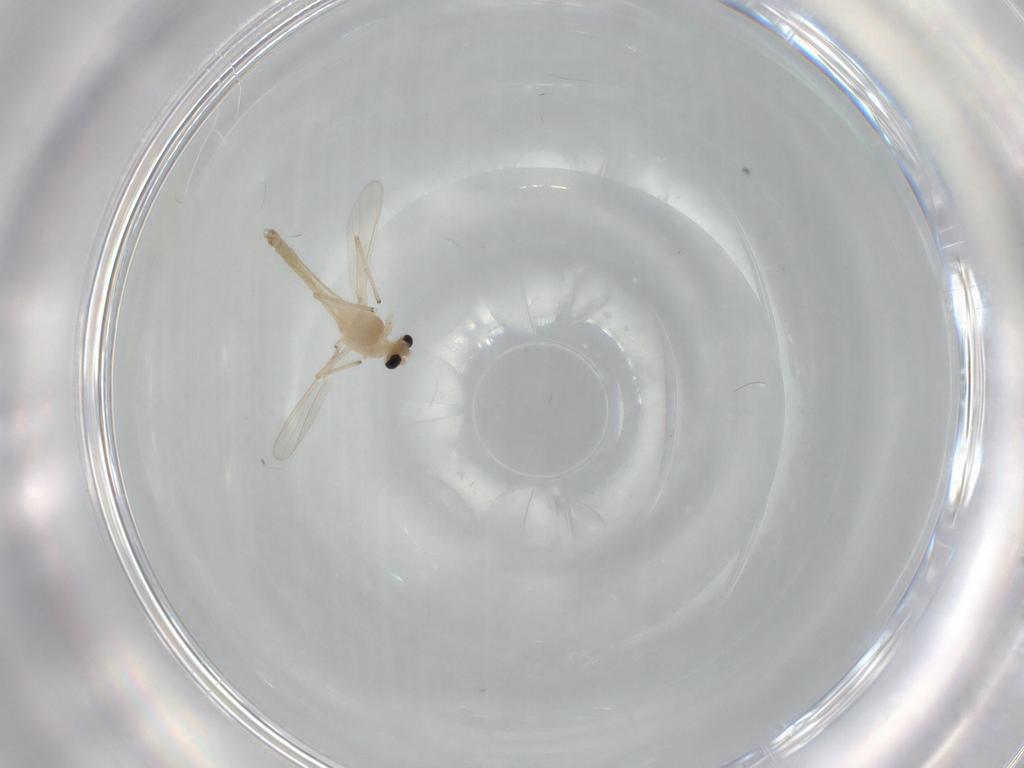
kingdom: Animalia
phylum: Arthropoda
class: Insecta
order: Diptera
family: Chironomidae
